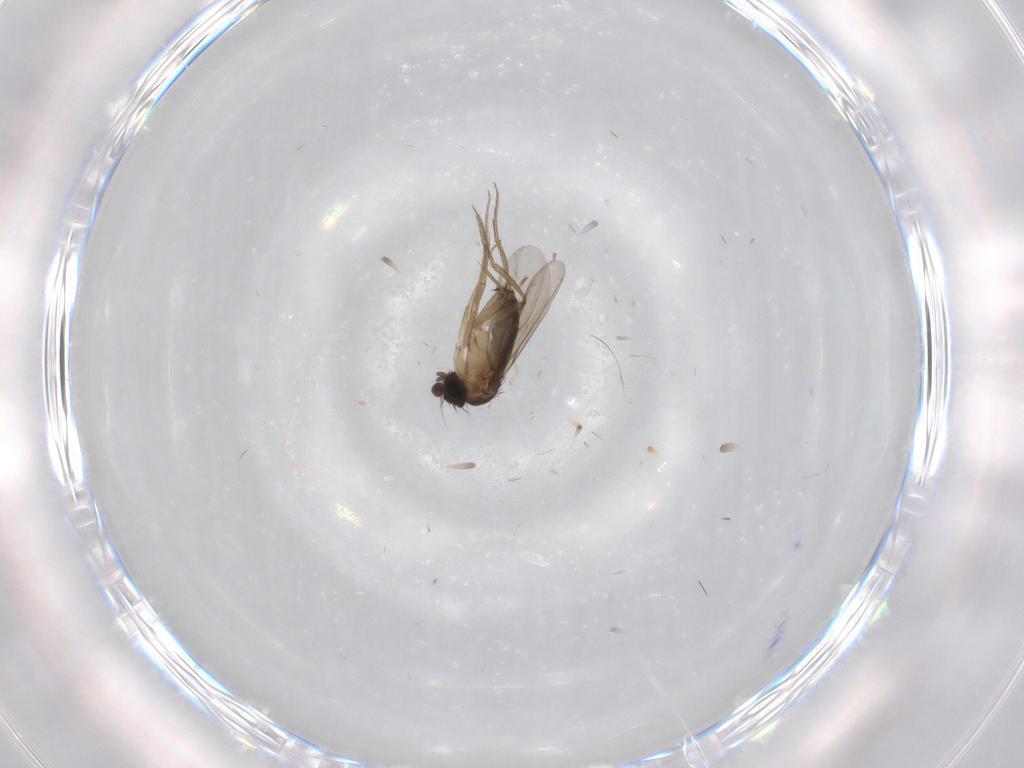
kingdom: Animalia
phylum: Arthropoda
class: Insecta
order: Diptera
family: Phoridae
